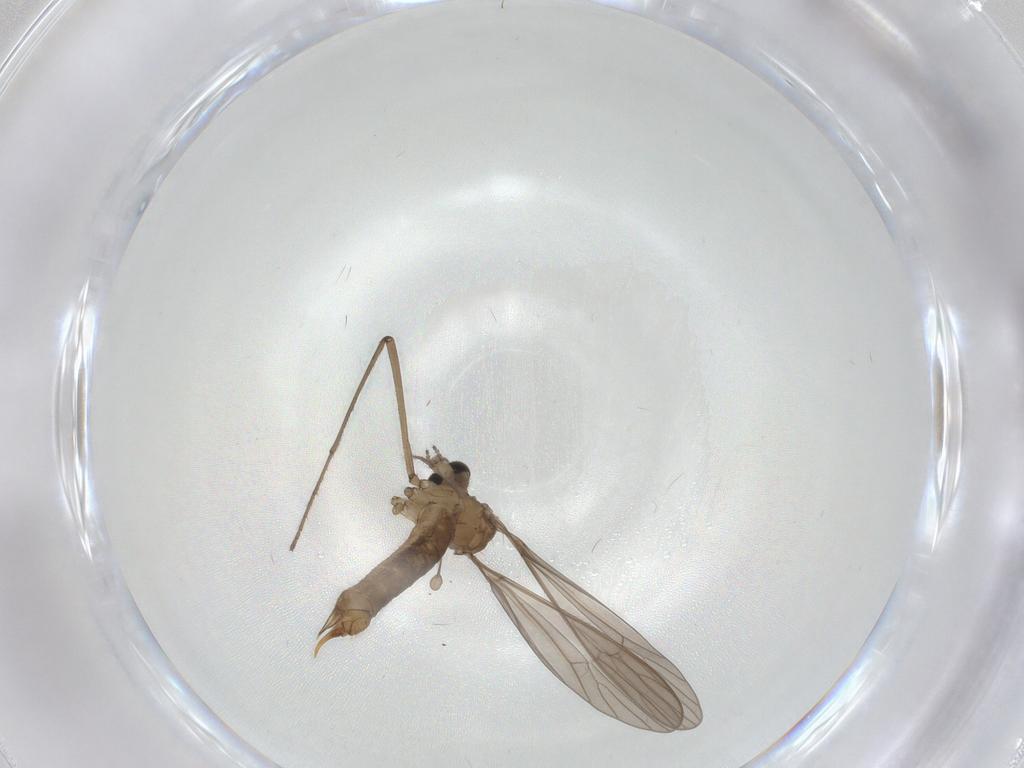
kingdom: Animalia
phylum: Arthropoda
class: Insecta
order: Diptera
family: Limoniidae
